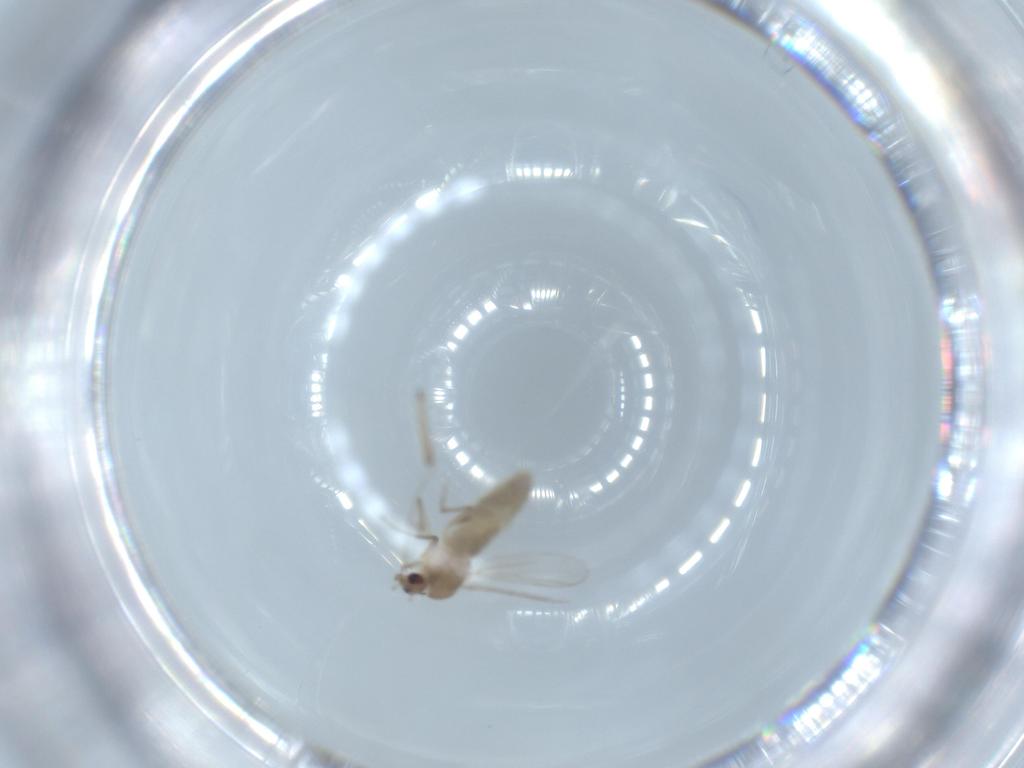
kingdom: Animalia
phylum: Arthropoda
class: Insecta
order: Diptera
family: Chironomidae
